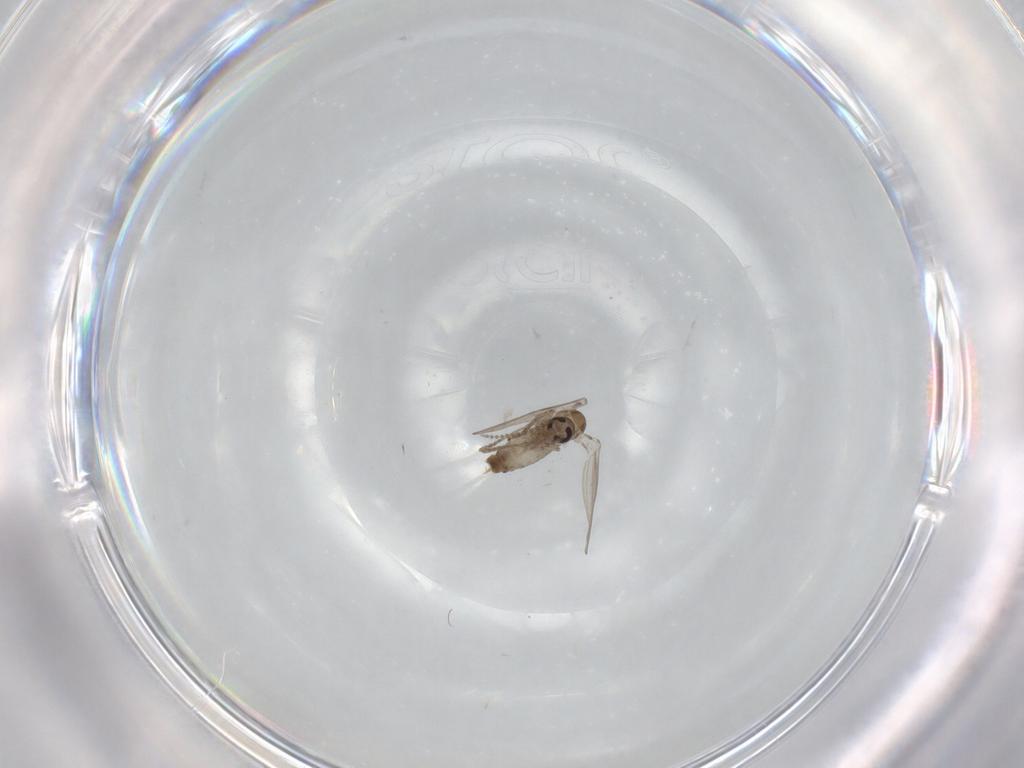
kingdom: Animalia
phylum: Arthropoda
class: Insecta
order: Diptera
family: Psychodidae
